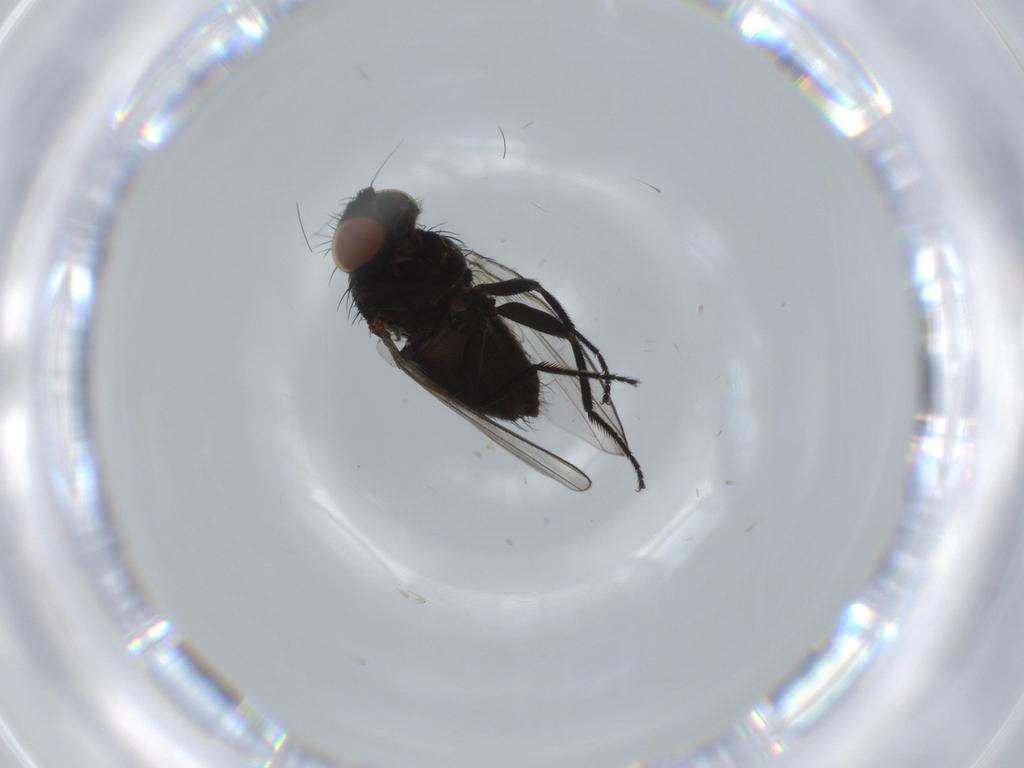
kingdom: Animalia
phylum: Arthropoda
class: Insecta
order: Diptera
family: Milichiidae
